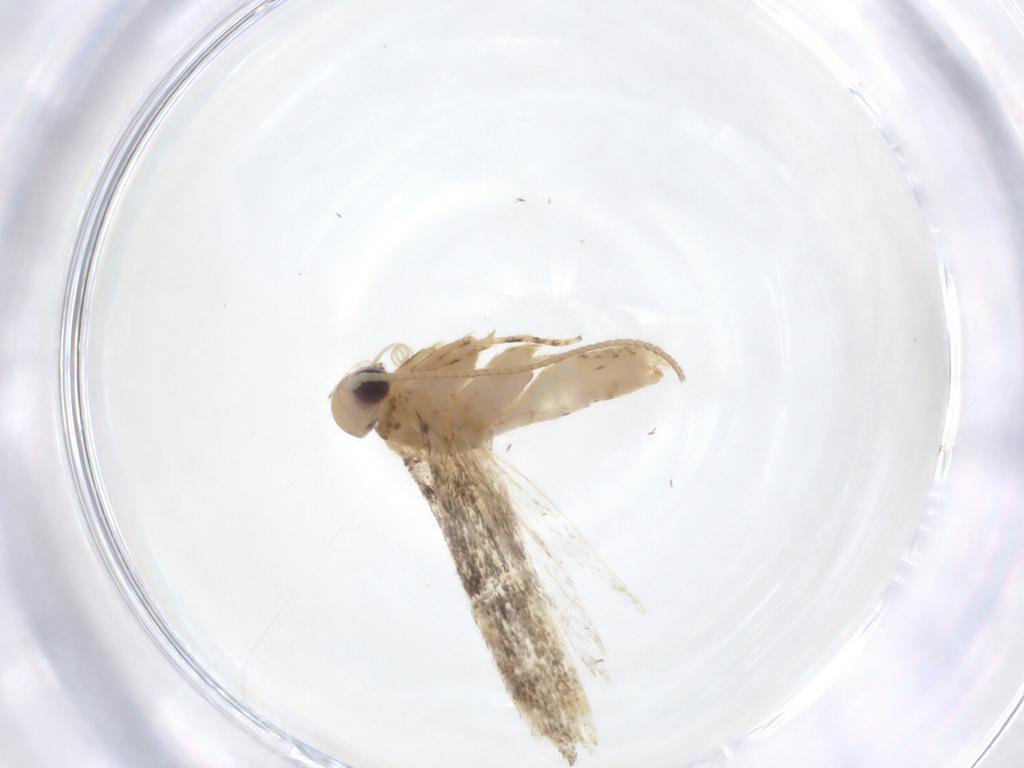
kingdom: Animalia
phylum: Arthropoda
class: Insecta
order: Lepidoptera
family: Gelechiidae
